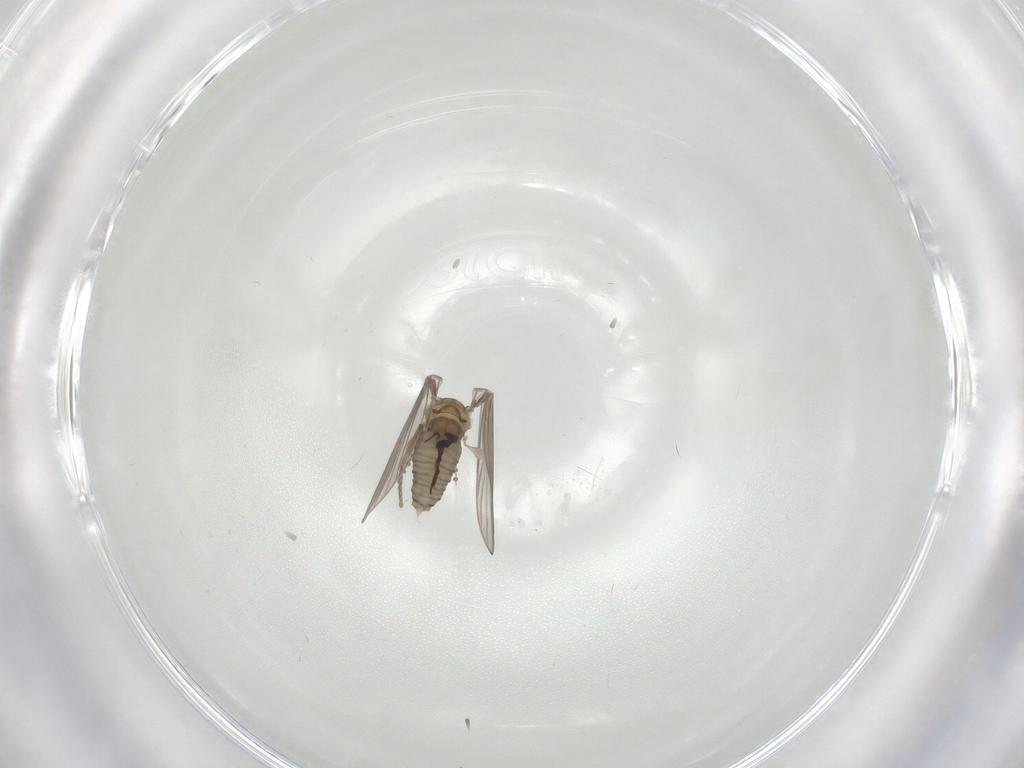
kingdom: Animalia
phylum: Arthropoda
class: Insecta
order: Diptera
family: Psychodidae
